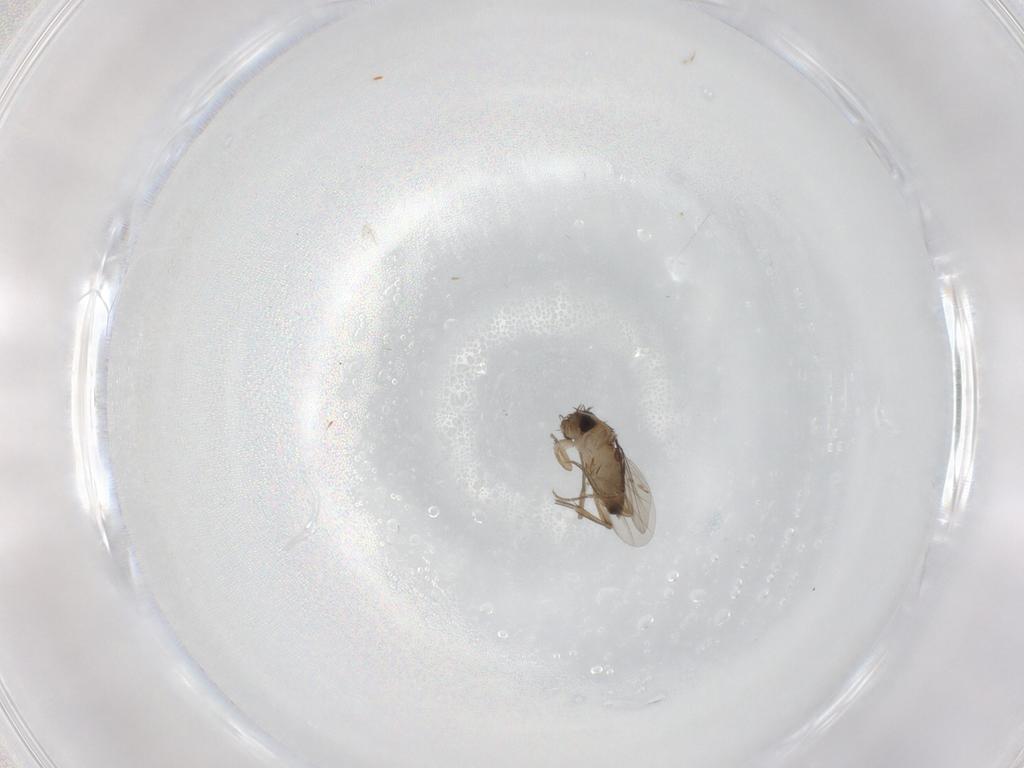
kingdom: Animalia
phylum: Arthropoda
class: Insecta
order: Diptera
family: Phoridae
